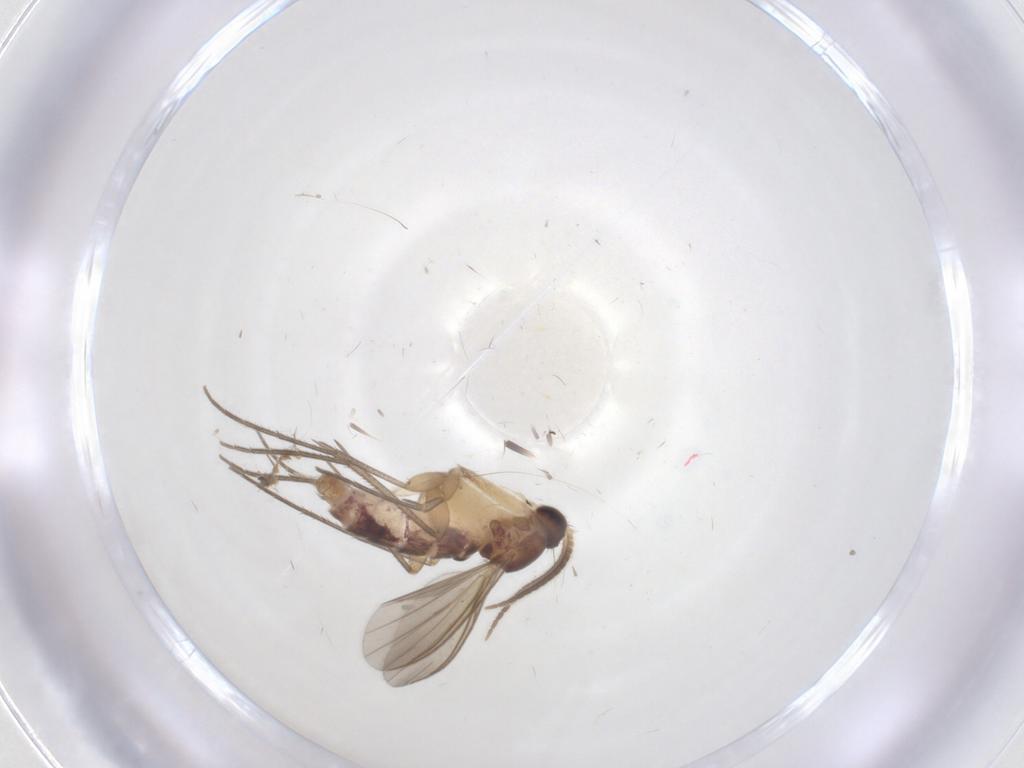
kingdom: Animalia
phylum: Arthropoda
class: Insecta
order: Diptera
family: Mycetophilidae
